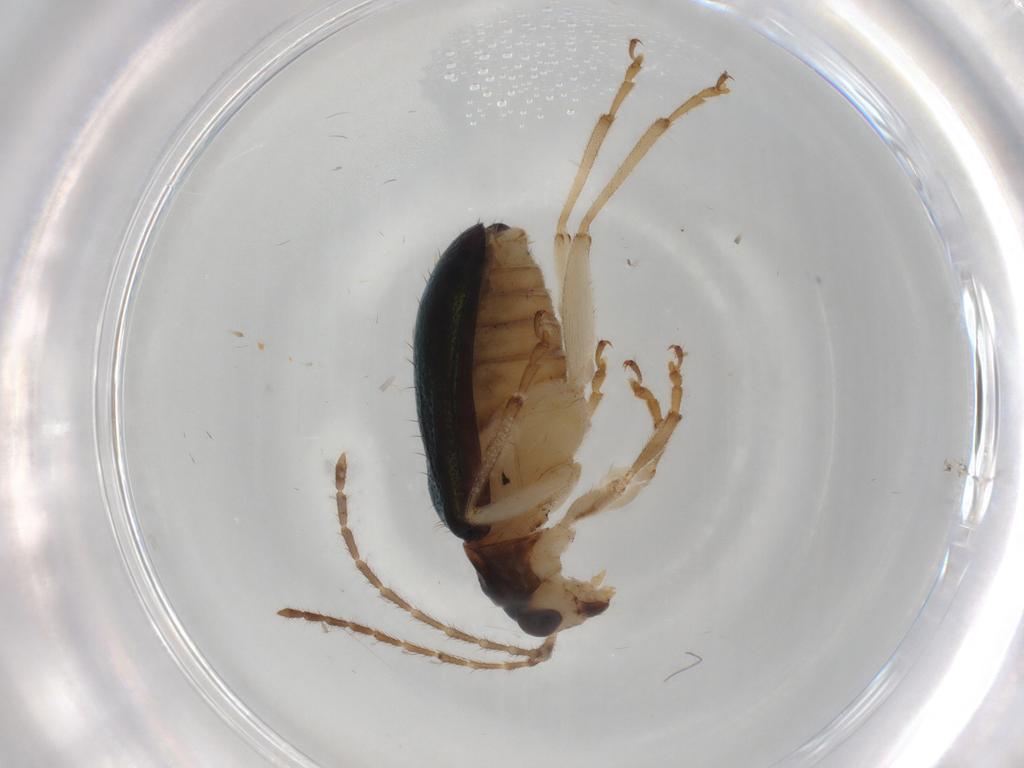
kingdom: Animalia
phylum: Arthropoda
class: Insecta
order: Coleoptera
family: Chrysomelidae
